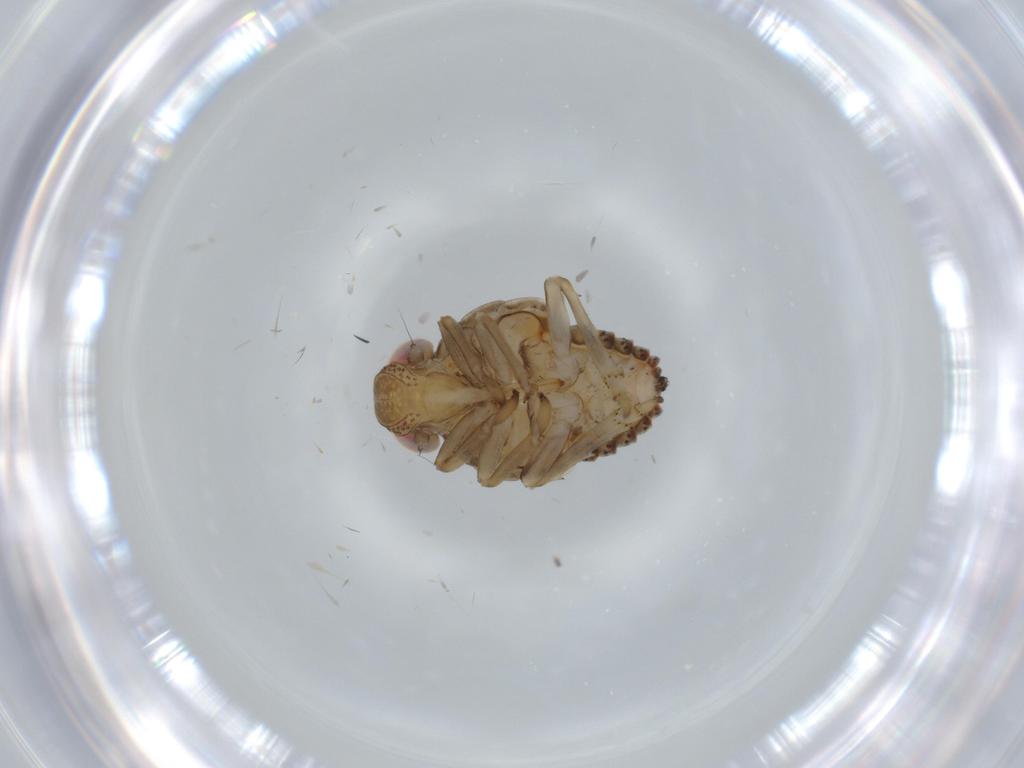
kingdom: Animalia
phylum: Arthropoda
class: Insecta
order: Hemiptera
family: Issidae
